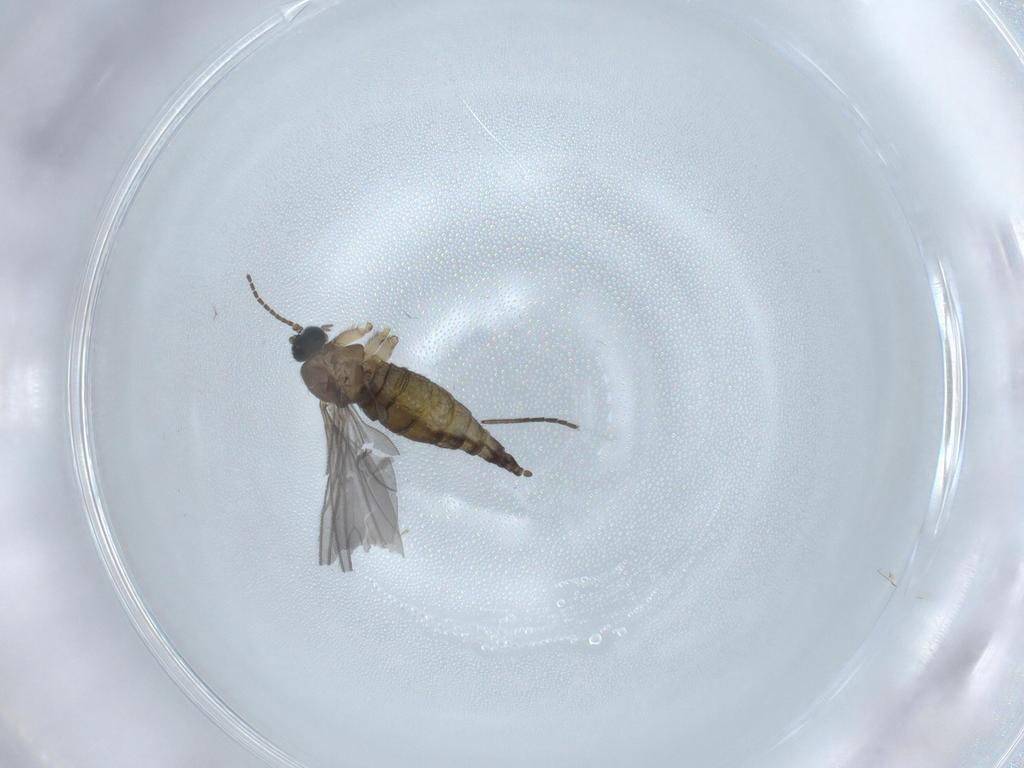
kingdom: Animalia
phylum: Arthropoda
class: Insecta
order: Diptera
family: Sciaridae
